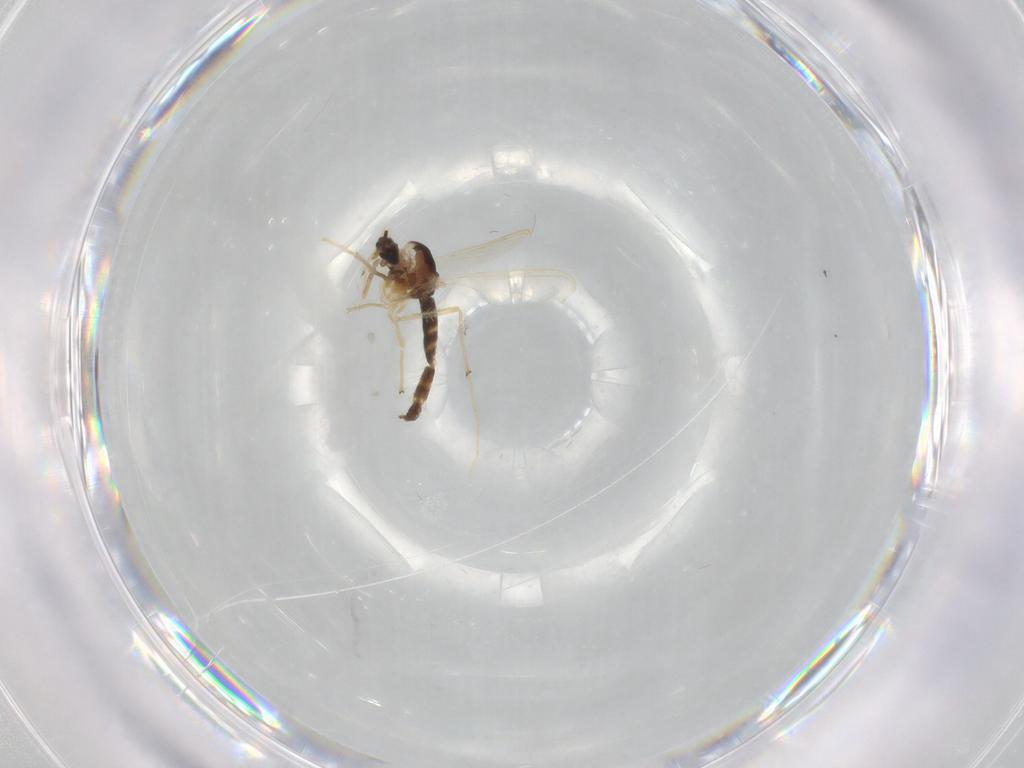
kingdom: Animalia
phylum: Arthropoda
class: Insecta
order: Diptera
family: Chironomidae
